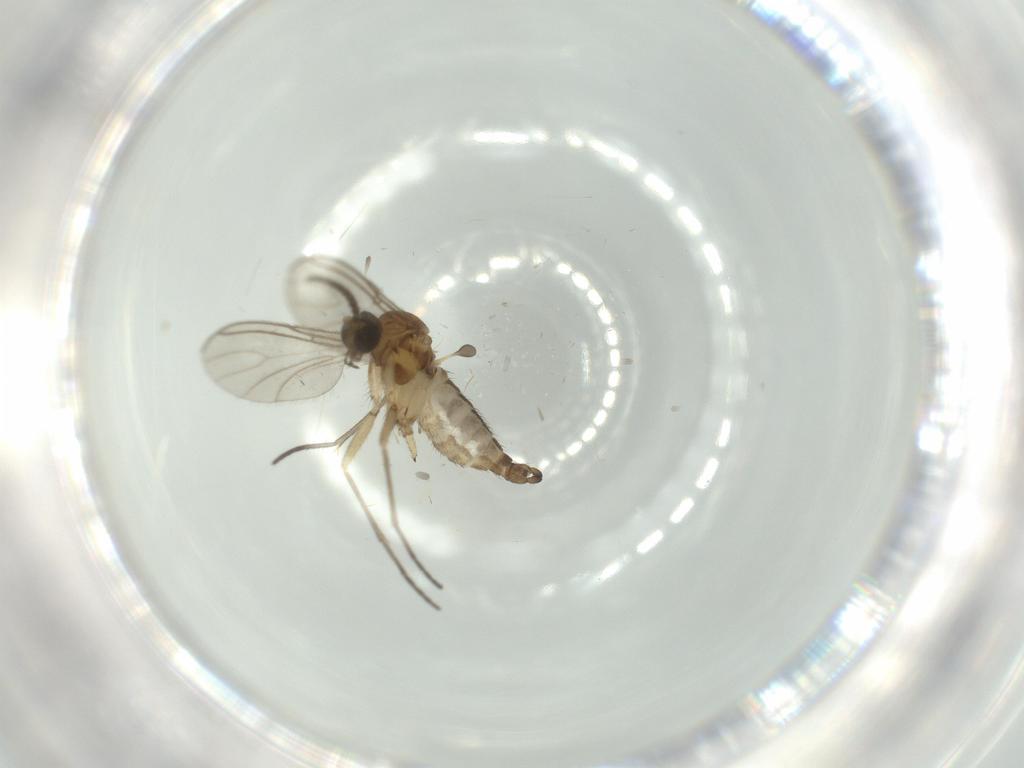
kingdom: Animalia
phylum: Arthropoda
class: Insecta
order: Diptera
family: Sciaridae
